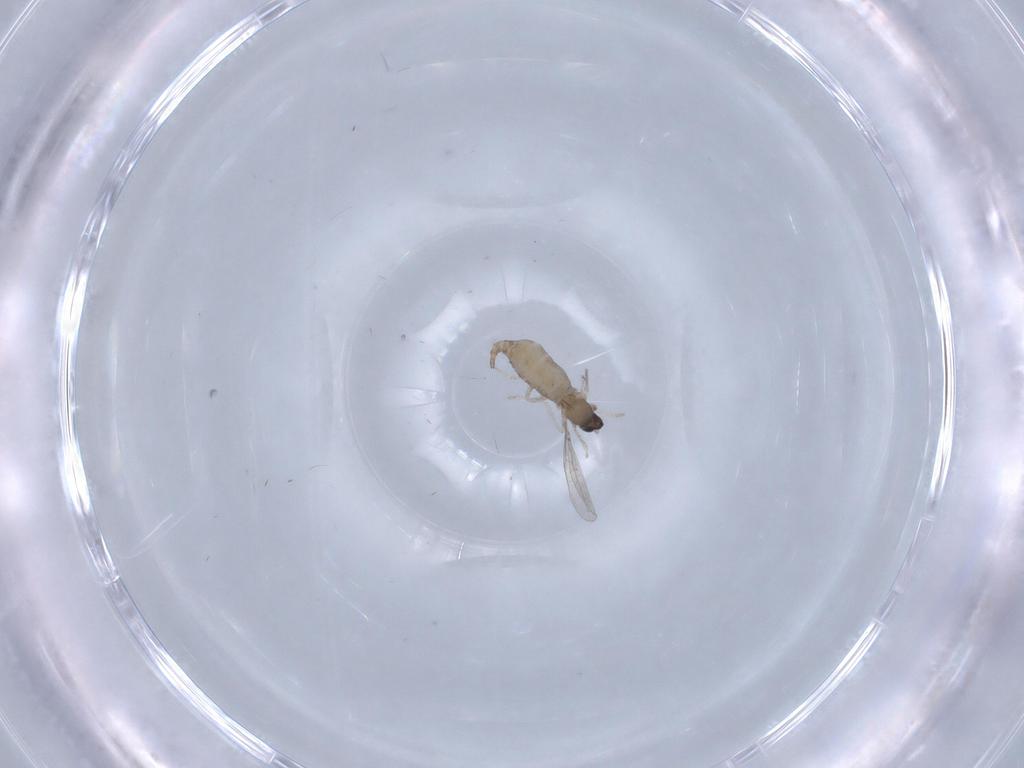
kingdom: Animalia
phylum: Arthropoda
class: Insecta
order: Diptera
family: Cecidomyiidae
